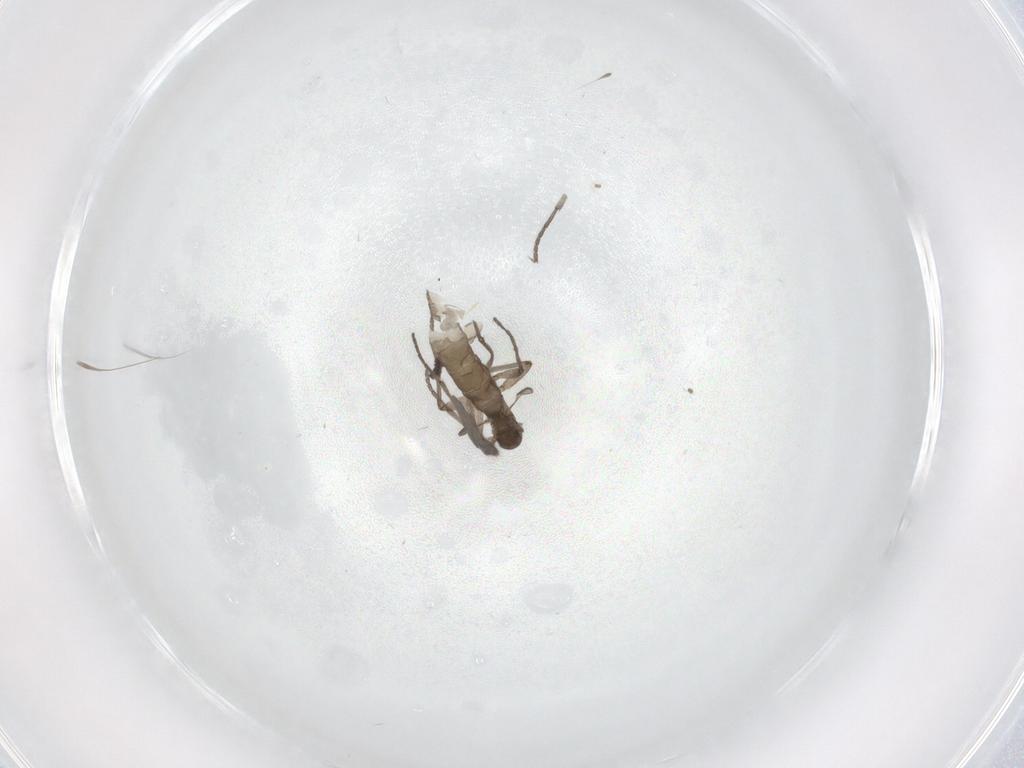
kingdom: Animalia
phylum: Arthropoda
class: Insecta
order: Diptera
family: Sciaridae
